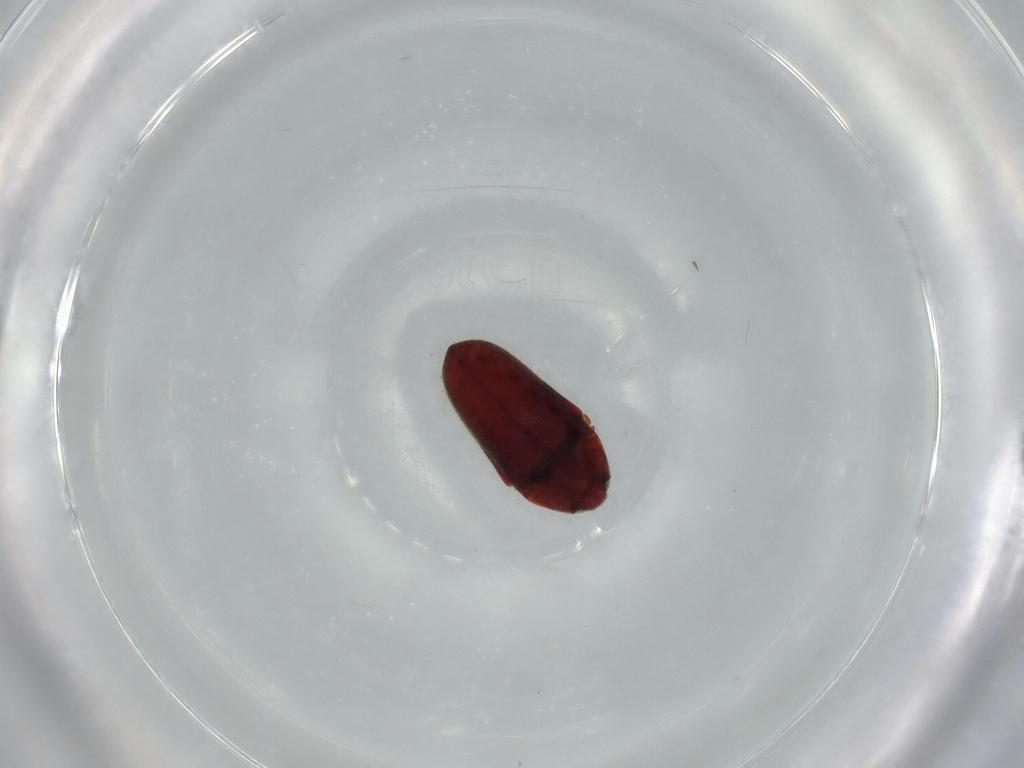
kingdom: Animalia
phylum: Arthropoda
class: Insecta
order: Coleoptera
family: Throscidae
